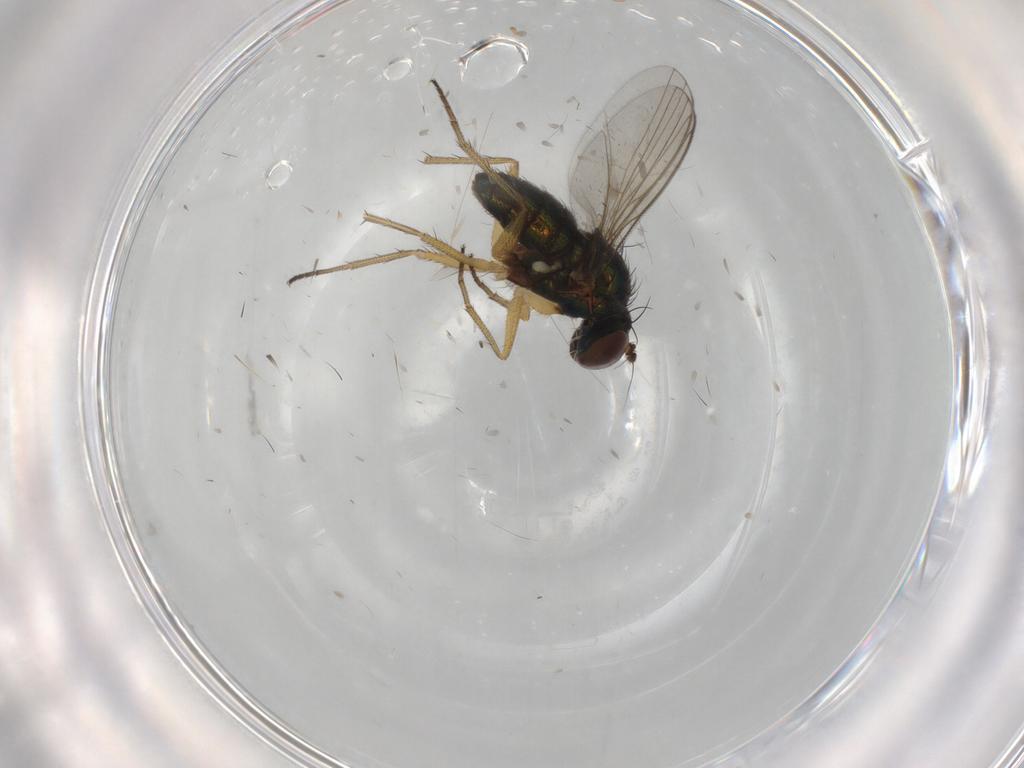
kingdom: Animalia
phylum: Arthropoda
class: Insecta
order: Diptera
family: Dolichopodidae
